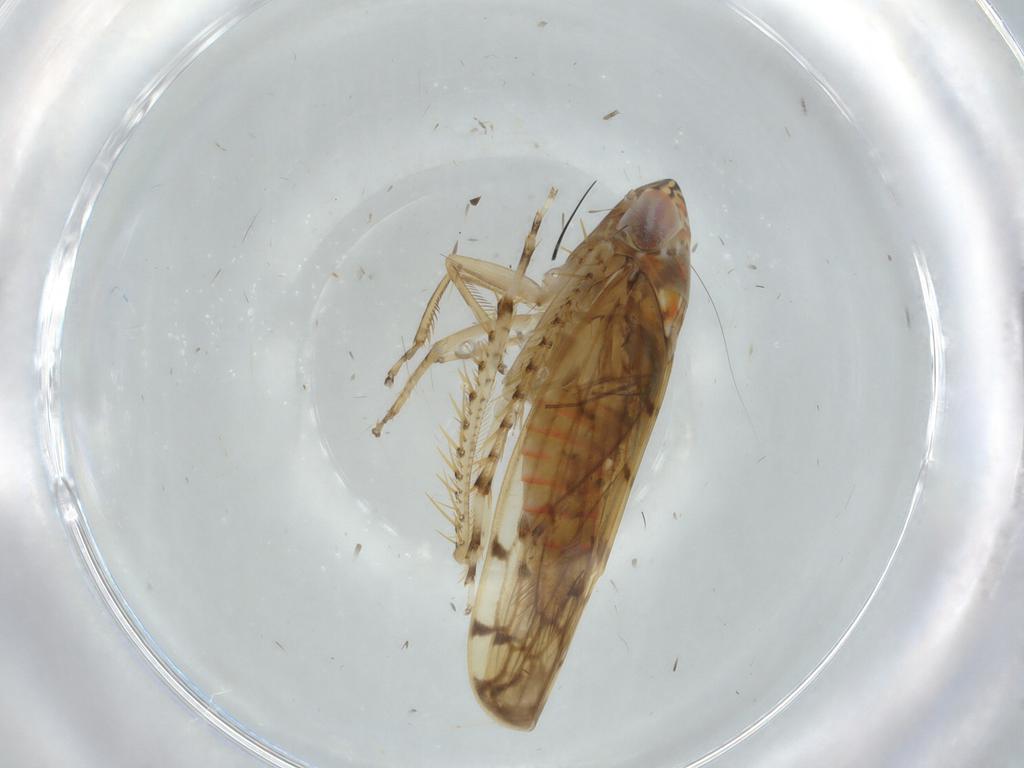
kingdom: Animalia
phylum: Arthropoda
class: Insecta
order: Hemiptera
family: Cicadellidae
